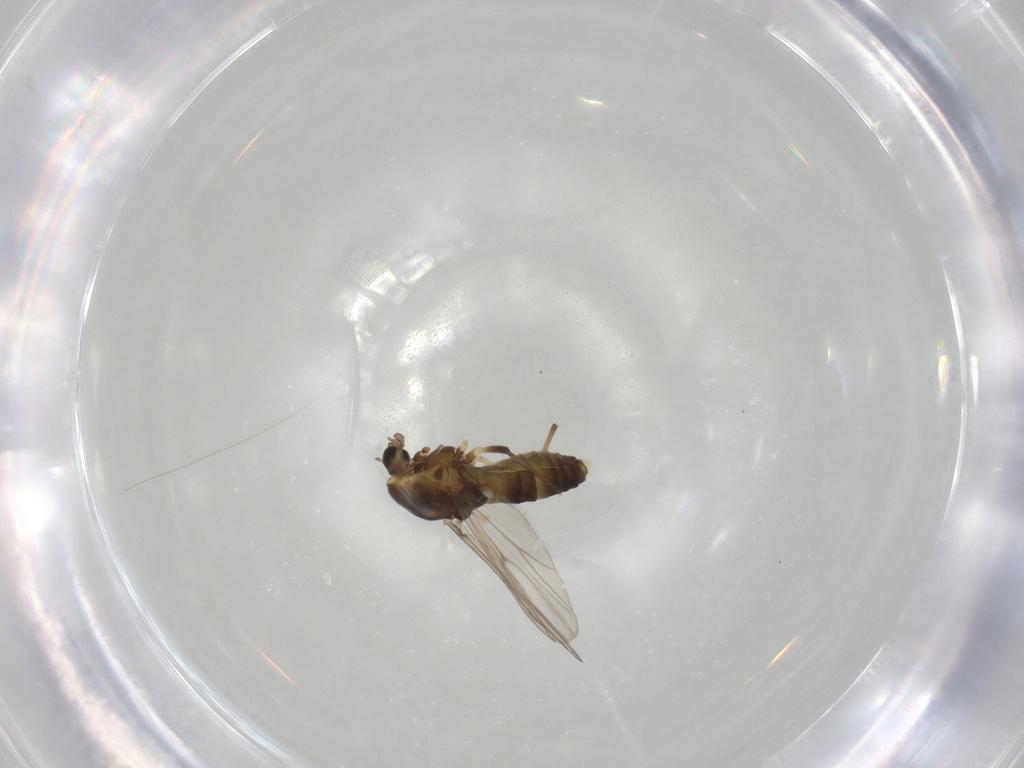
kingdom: Animalia
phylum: Arthropoda
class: Insecta
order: Diptera
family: Chironomidae
